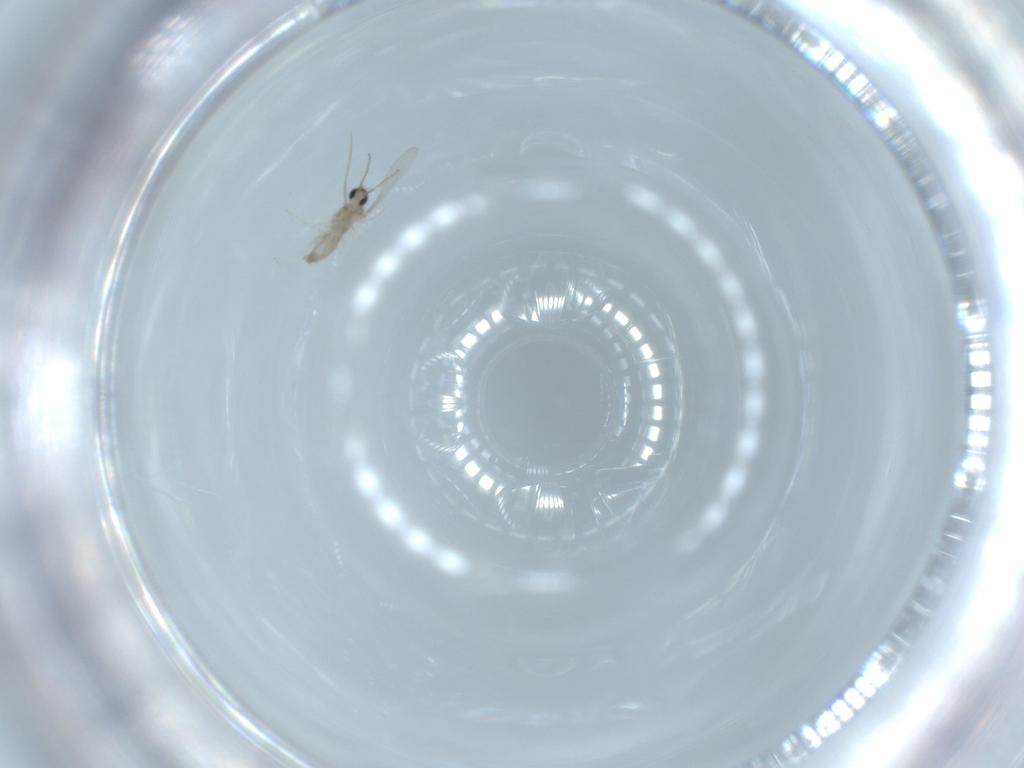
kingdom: Animalia
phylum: Arthropoda
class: Insecta
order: Diptera
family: Chironomidae
